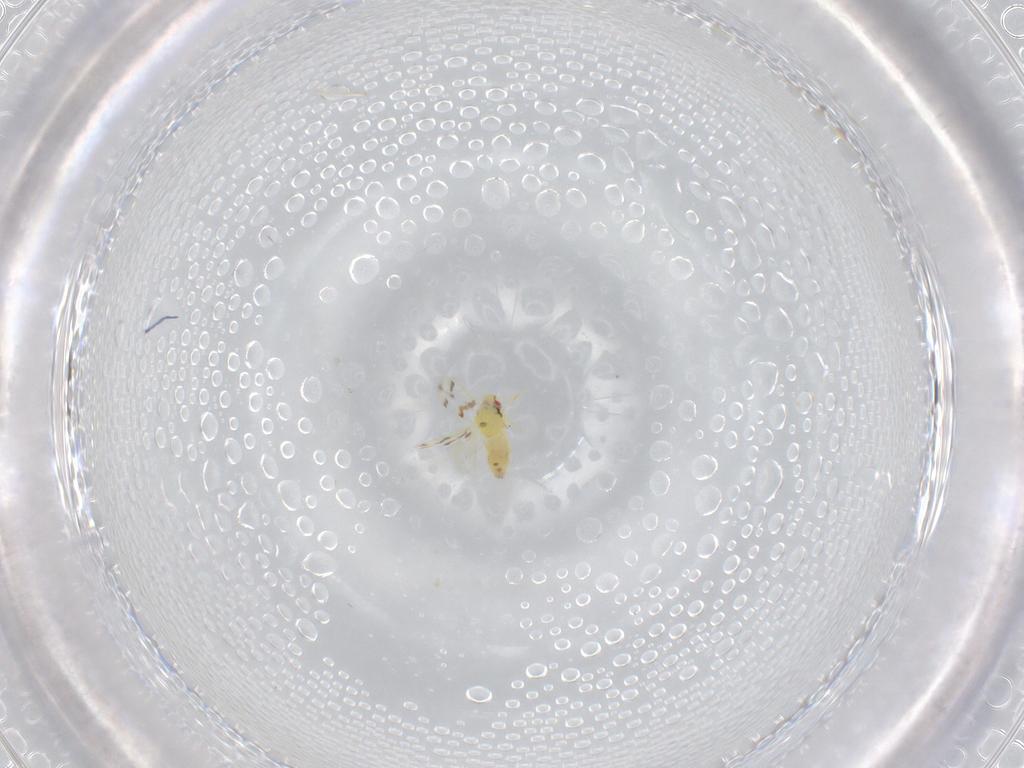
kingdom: Animalia
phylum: Arthropoda
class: Insecta
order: Hemiptera
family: Aleyrodidae
